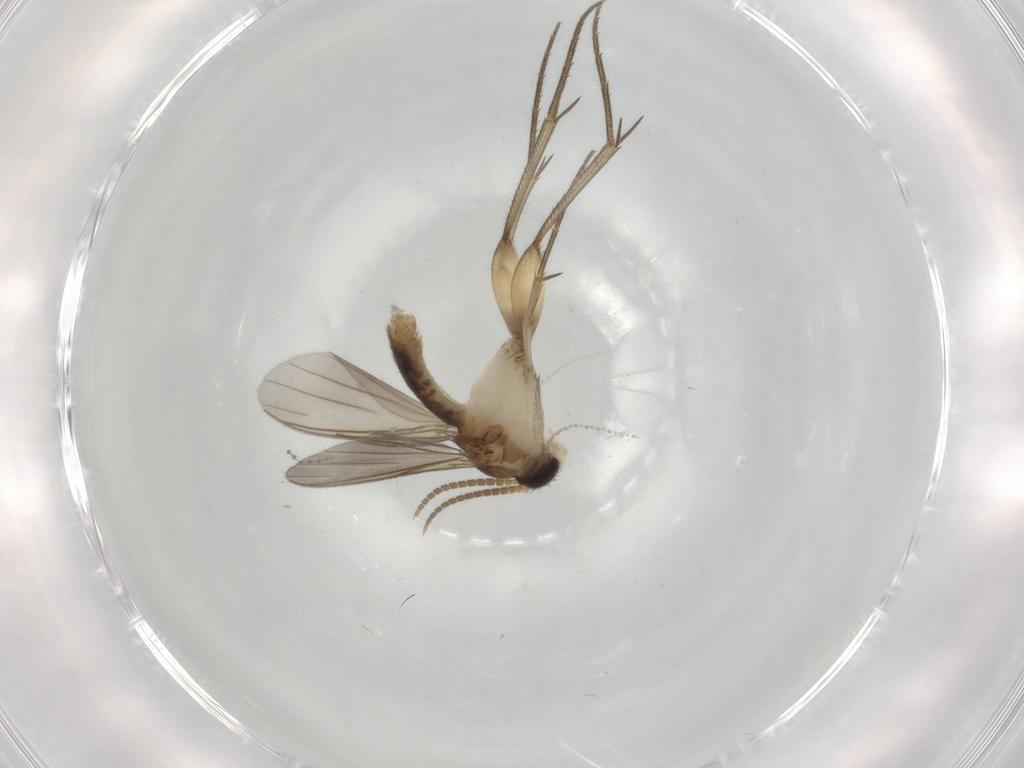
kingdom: Animalia
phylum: Arthropoda
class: Insecta
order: Diptera
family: Mycetophilidae
